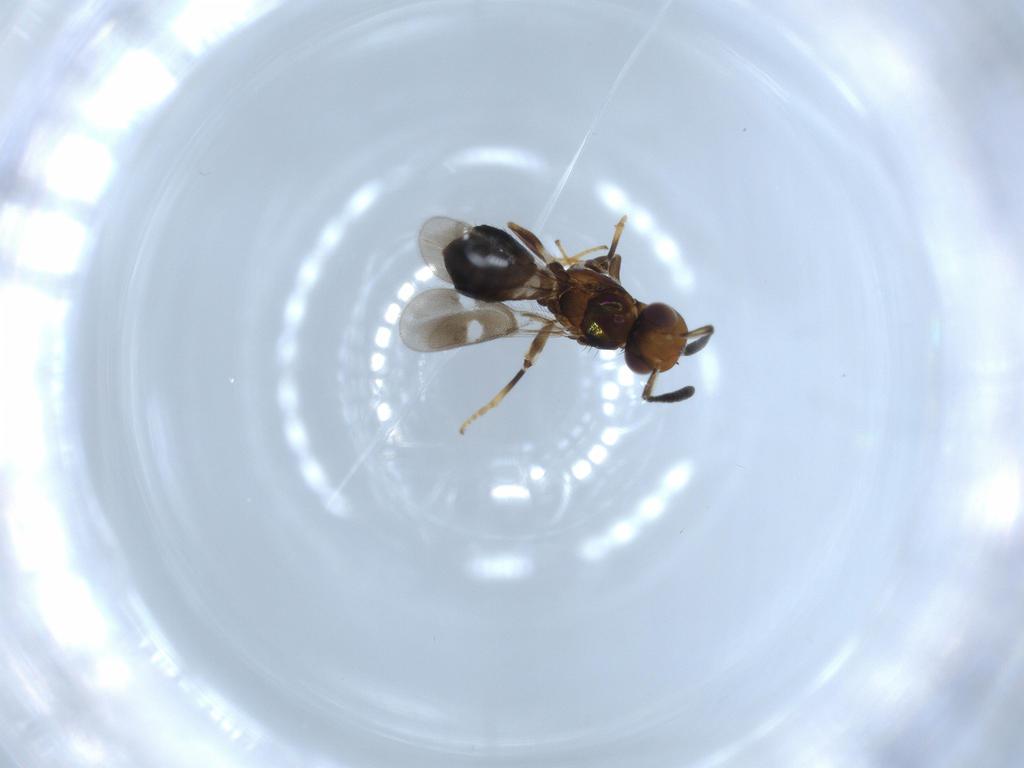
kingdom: Animalia
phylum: Arthropoda
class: Insecta
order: Hymenoptera
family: Eupelmidae
